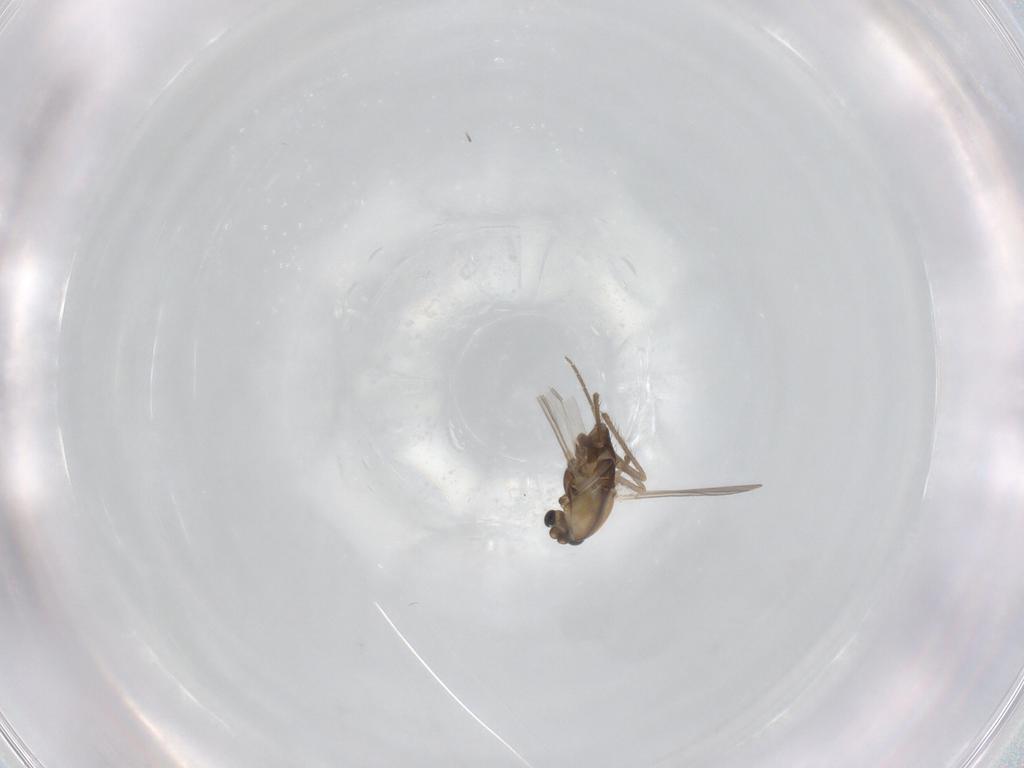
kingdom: Animalia
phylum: Arthropoda
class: Insecta
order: Diptera
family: Chironomidae
